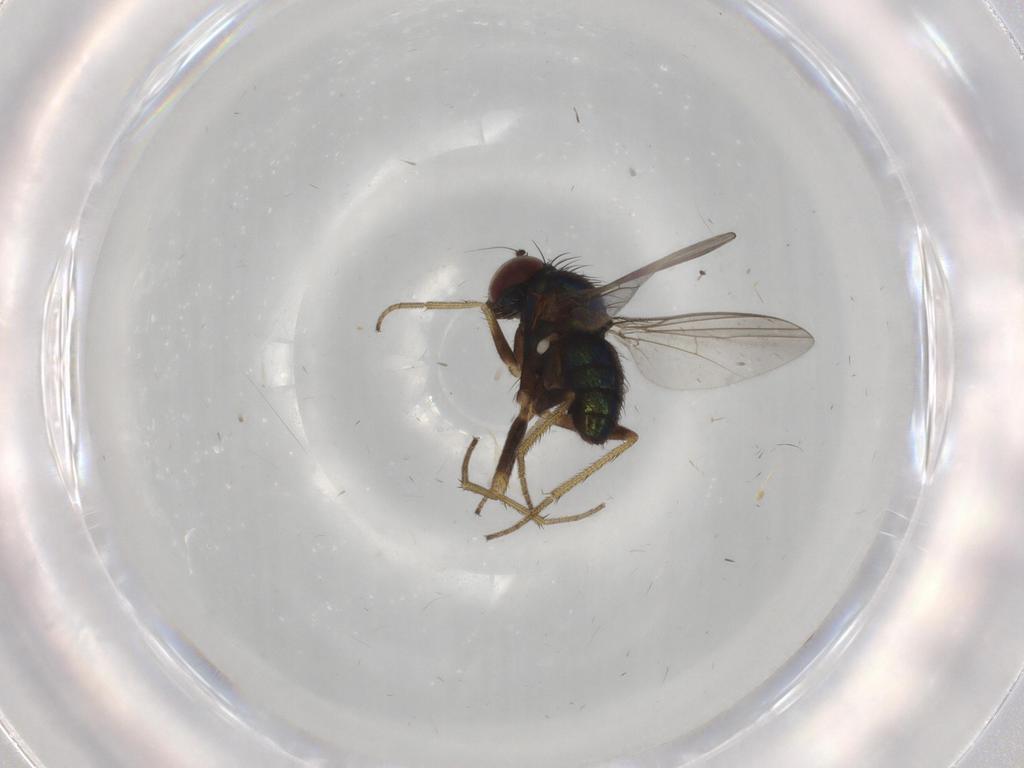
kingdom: Animalia
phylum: Arthropoda
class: Insecta
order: Diptera
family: Dolichopodidae
